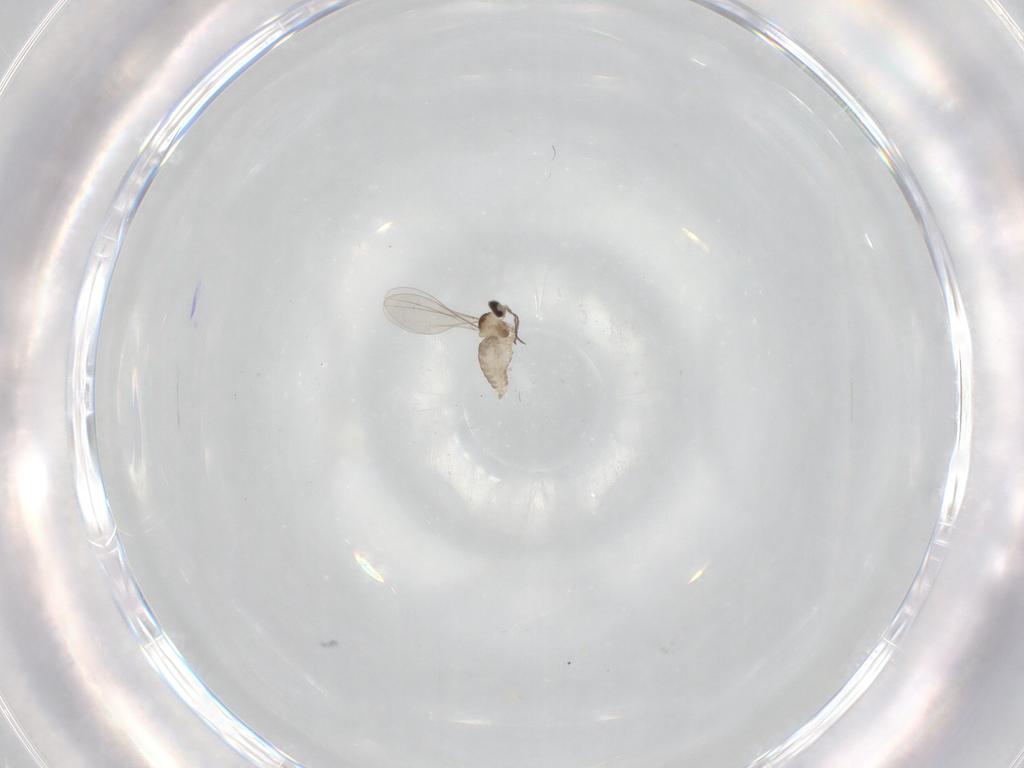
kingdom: Animalia
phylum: Arthropoda
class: Insecta
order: Diptera
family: Cecidomyiidae
